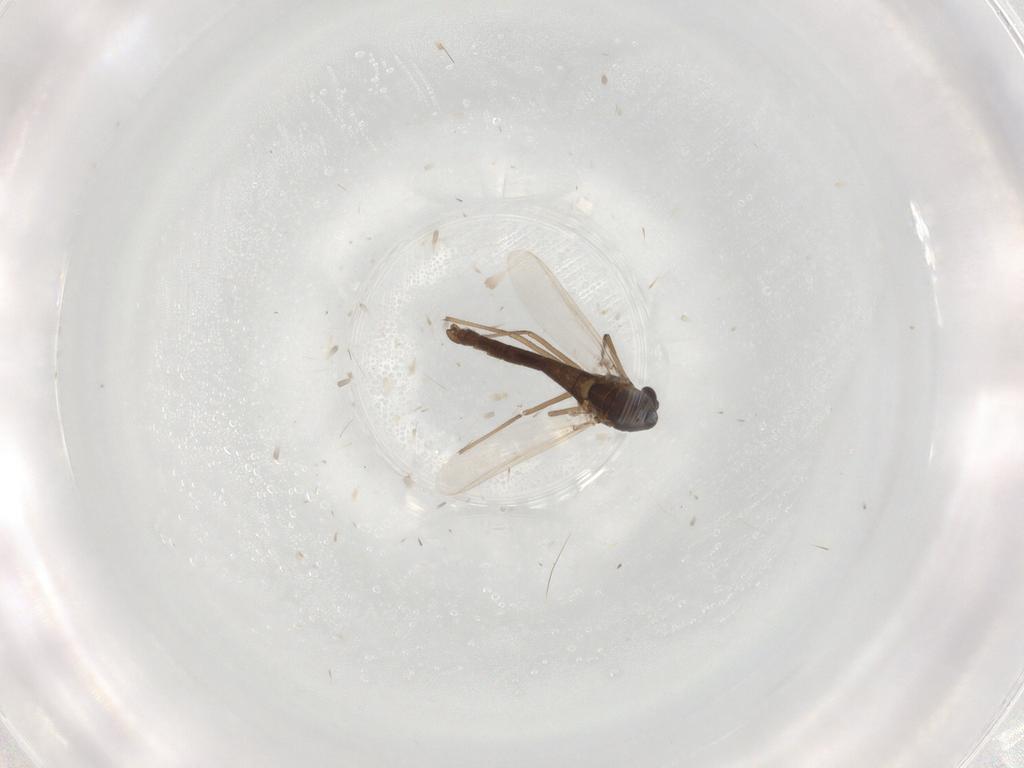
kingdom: Animalia
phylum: Arthropoda
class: Insecta
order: Diptera
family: Chironomidae
